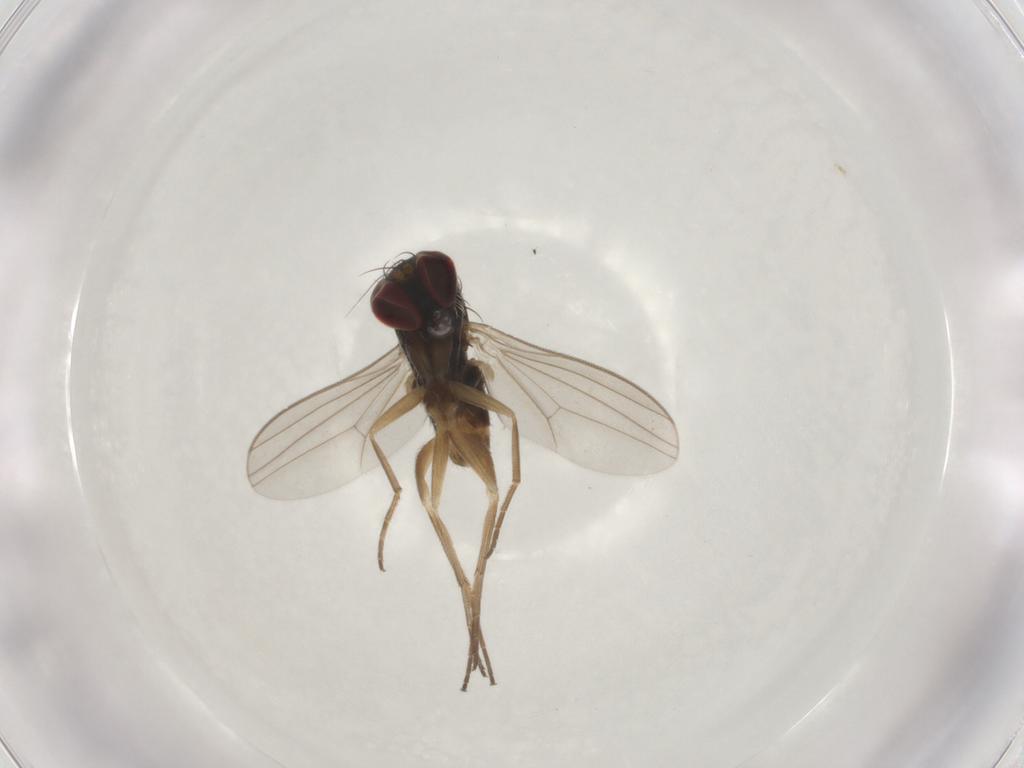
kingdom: Animalia
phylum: Arthropoda
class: Insecta
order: Diptera
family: Dolichopodidae
